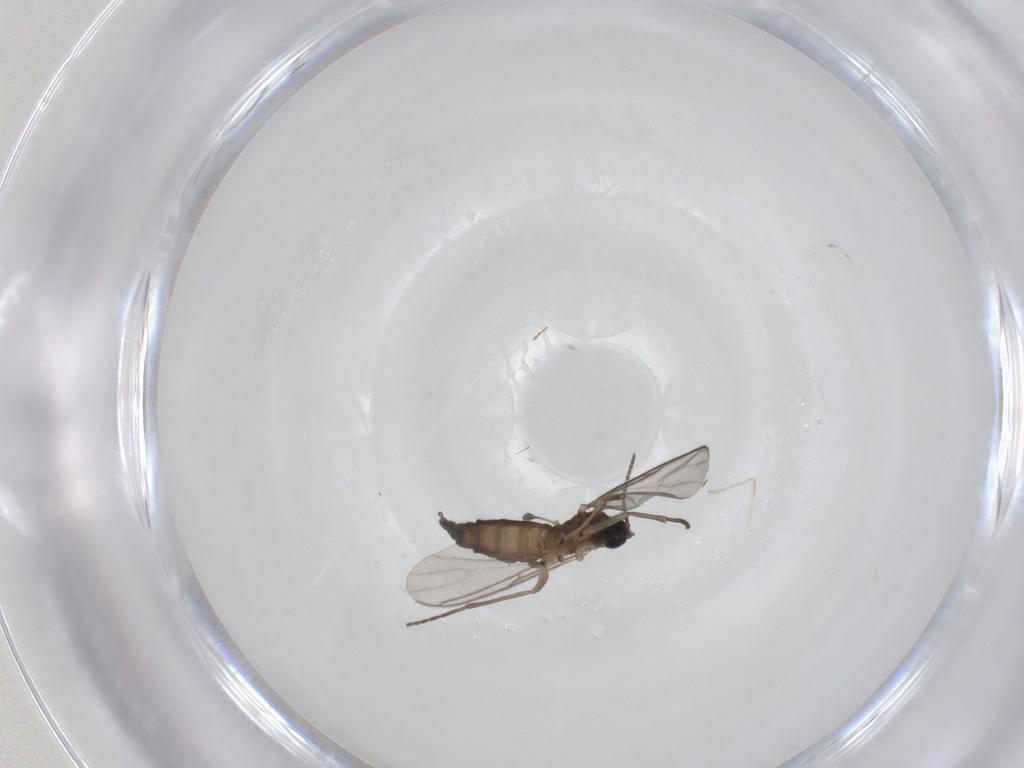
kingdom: Animalia
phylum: Arthropoda
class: Insecta
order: Diptera
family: Sciaridae
